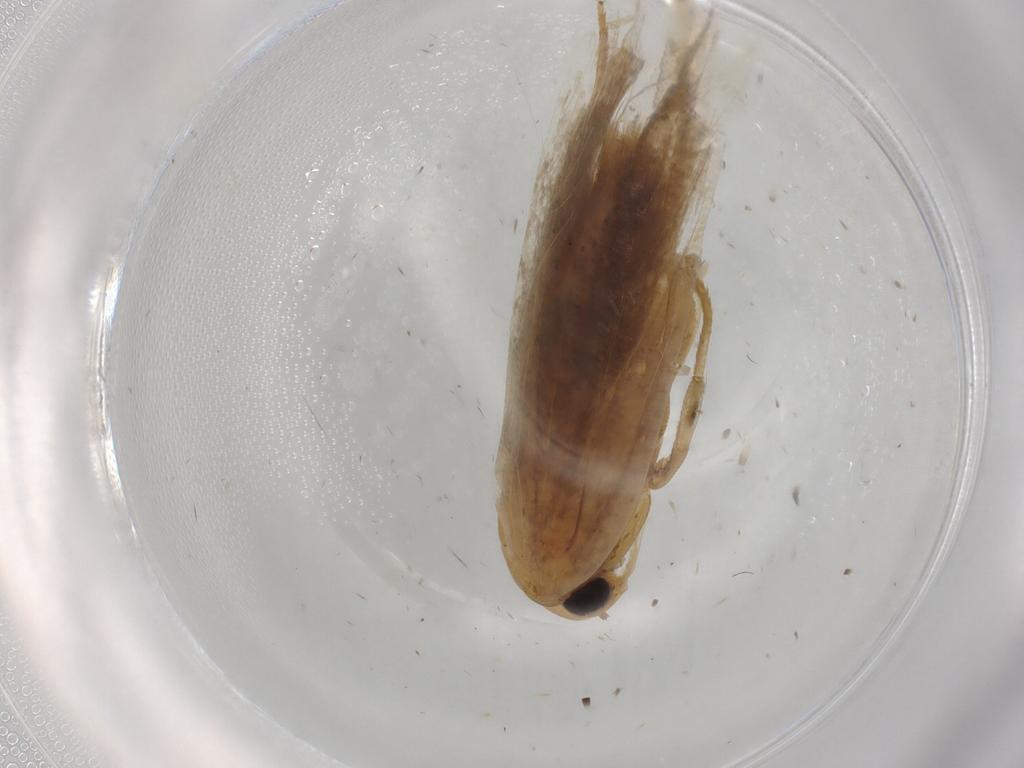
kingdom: Animalia
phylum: Arthropoda
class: Insecta
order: Lepidoptera
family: Cosmopterigidae
